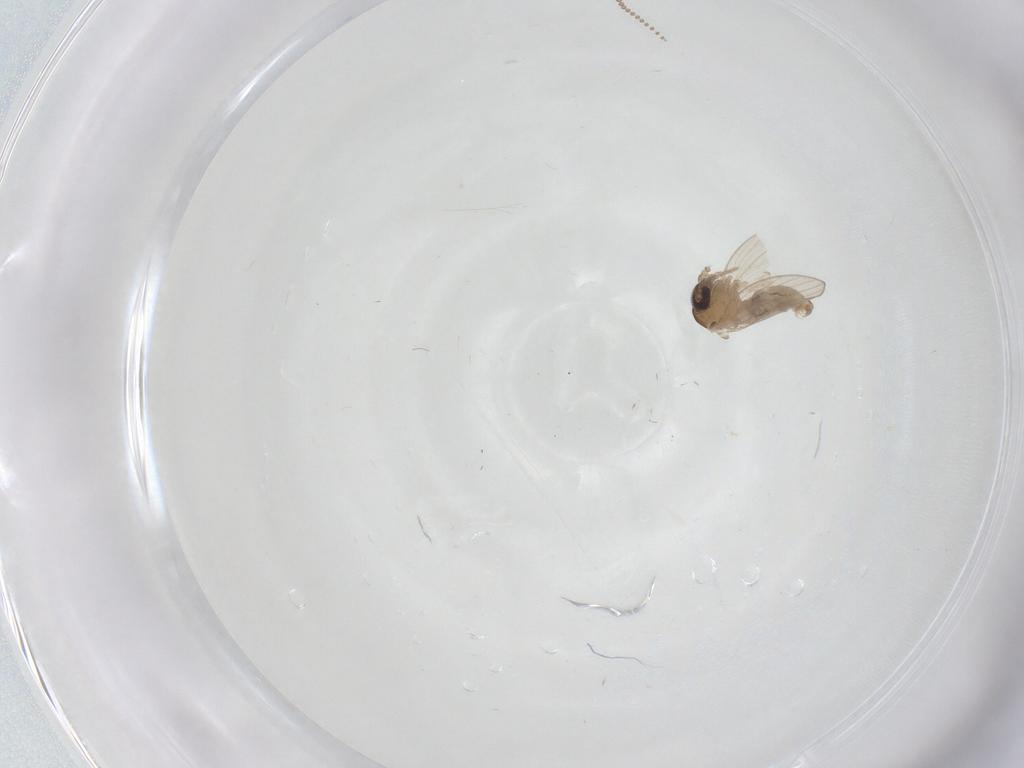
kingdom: Animalia
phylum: Arthropoda
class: Insecta
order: Diptera
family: Psychodidae
